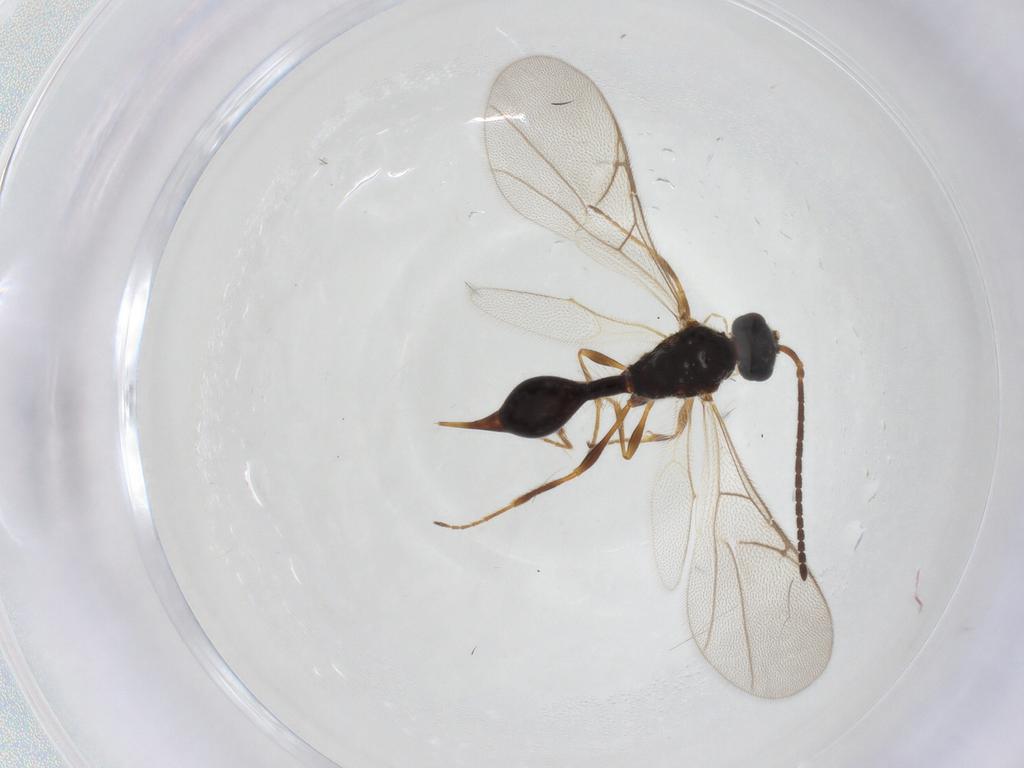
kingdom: Animalia
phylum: Arthropoda
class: Insecta
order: Hymenoptera
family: Diapriidae
